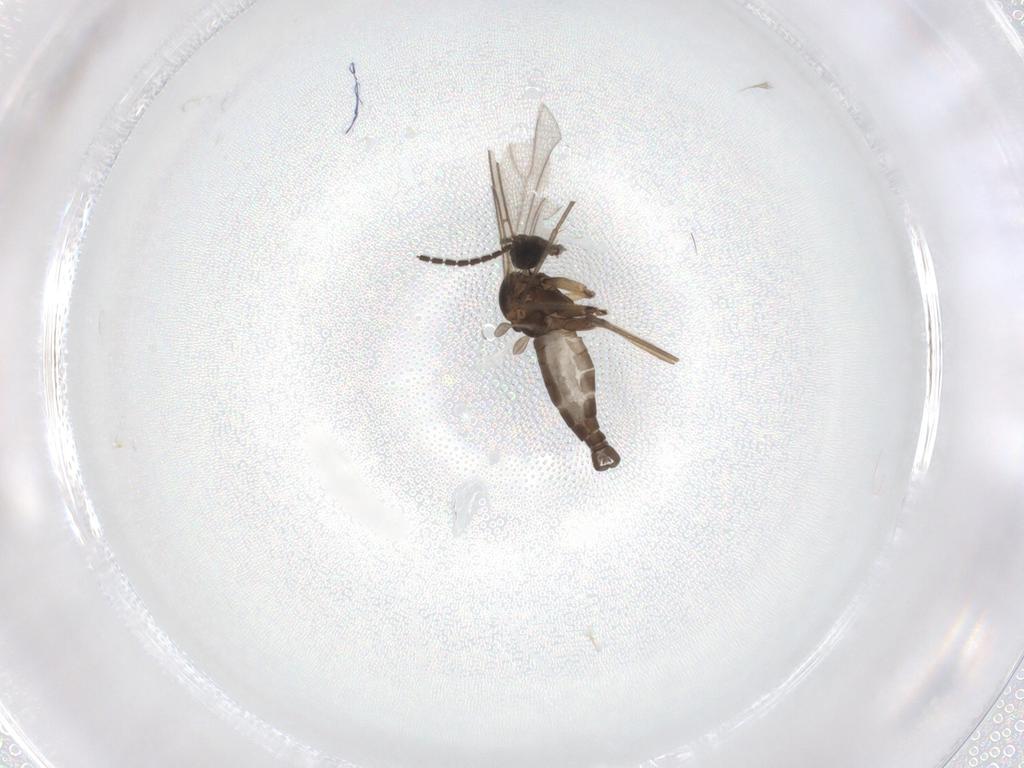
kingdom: Animalia
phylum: Arthropoda
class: Insecta
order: Diptera
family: Sciaridae
